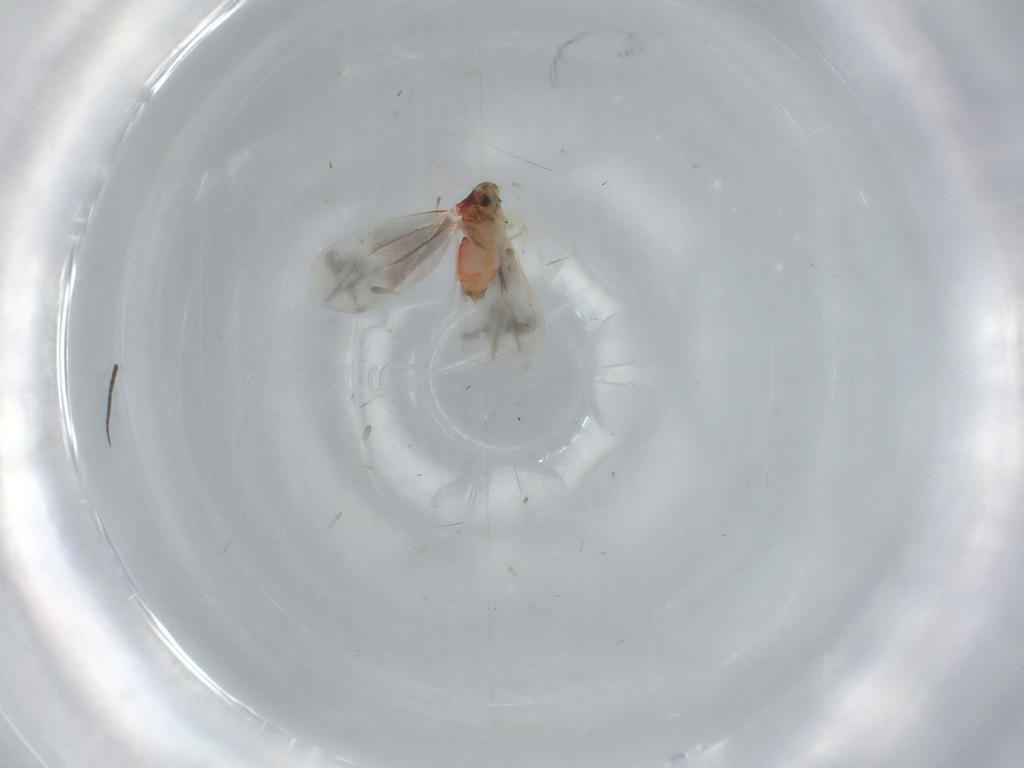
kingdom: Animalia
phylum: Arthropoda
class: Insecta
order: Hemiptera
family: Aleyrodidae
